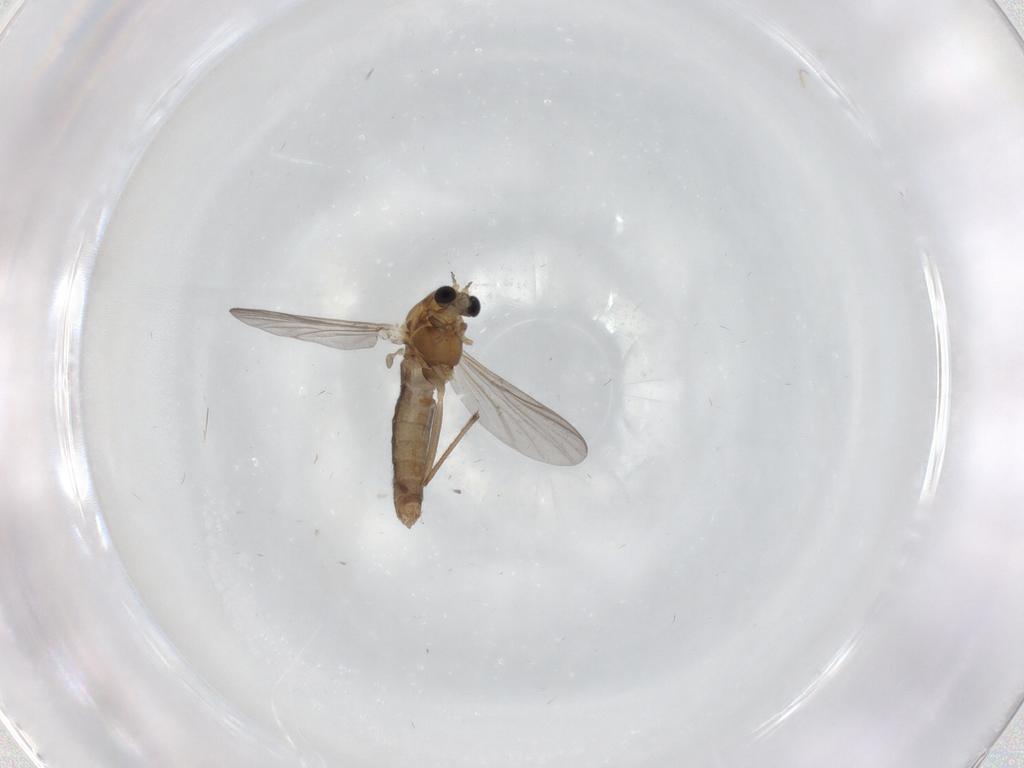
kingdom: Animalia
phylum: Arthropoda
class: Insecta
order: Diptera
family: Chironomidae
